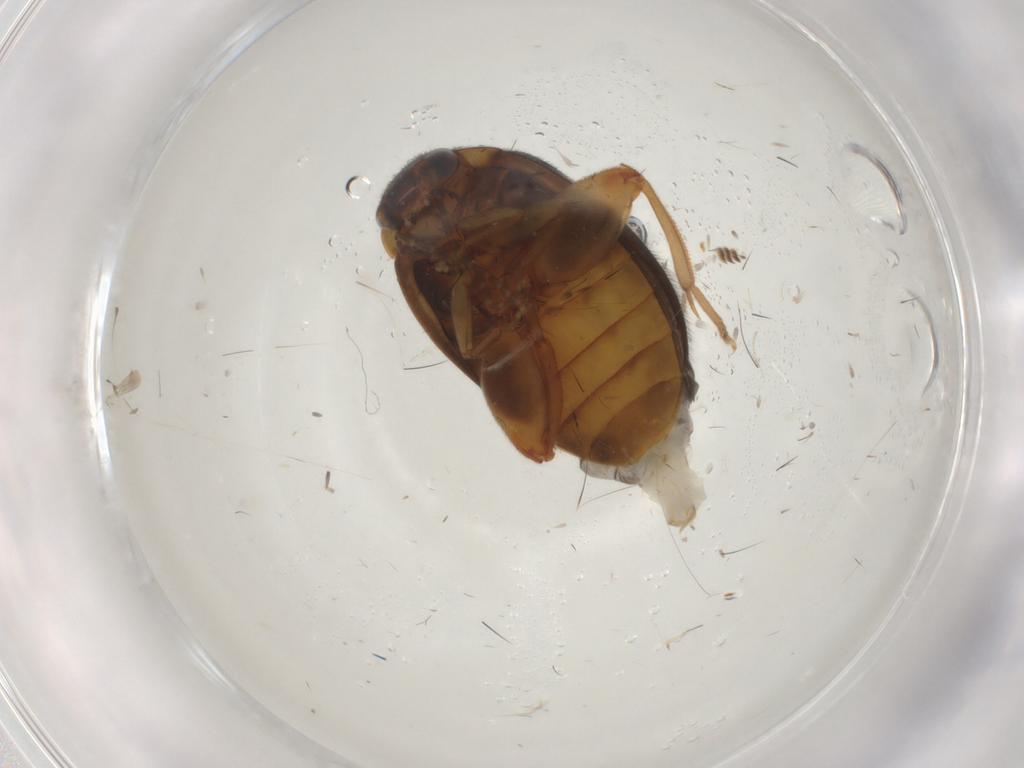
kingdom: Animalia
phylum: Arthropoda
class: Insecta
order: Coleoptera
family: Scirtidae
